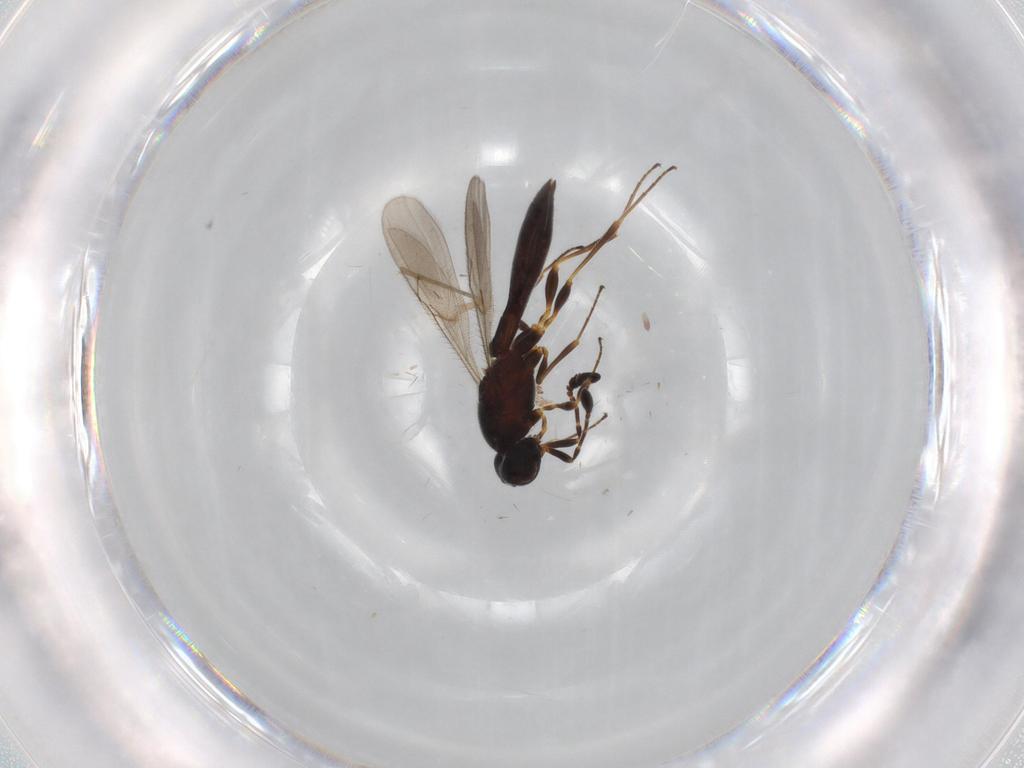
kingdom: Animalia
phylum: Arthropoda
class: Insecta
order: Hymenoptera
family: Scelionidae
